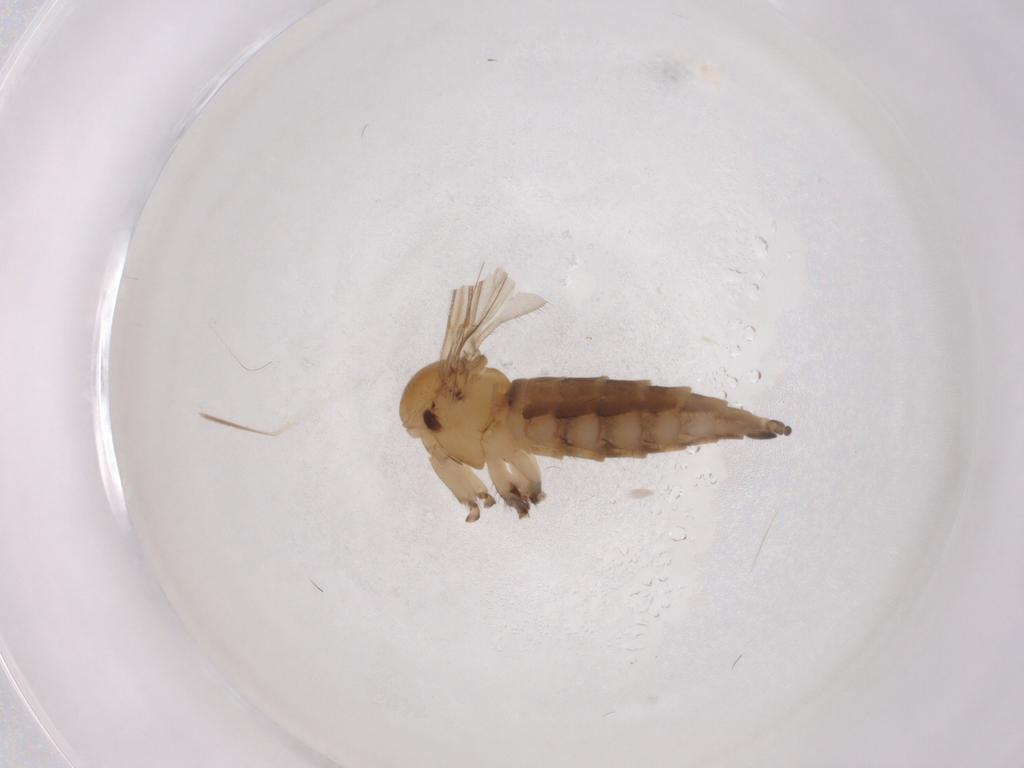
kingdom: Animalia
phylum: Arthropoda
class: Insecta
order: Diptera
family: Sciaridae
